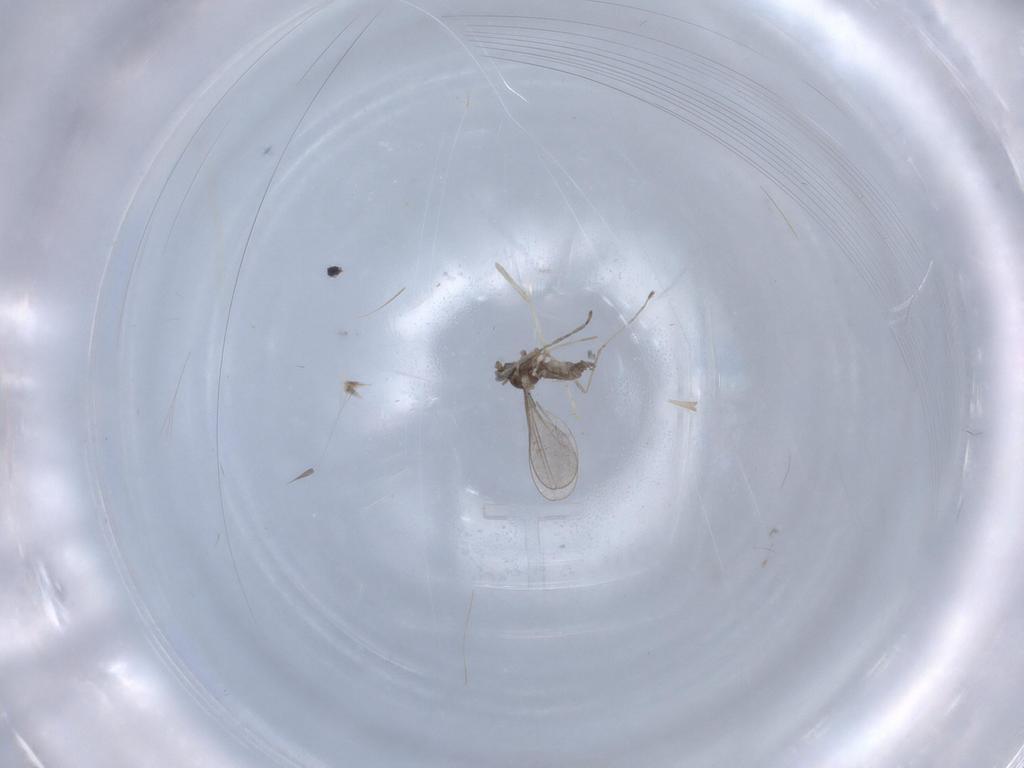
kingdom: Animalia
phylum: Arthropoda
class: Insecta
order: Diptera
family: Cecidomyiidae
